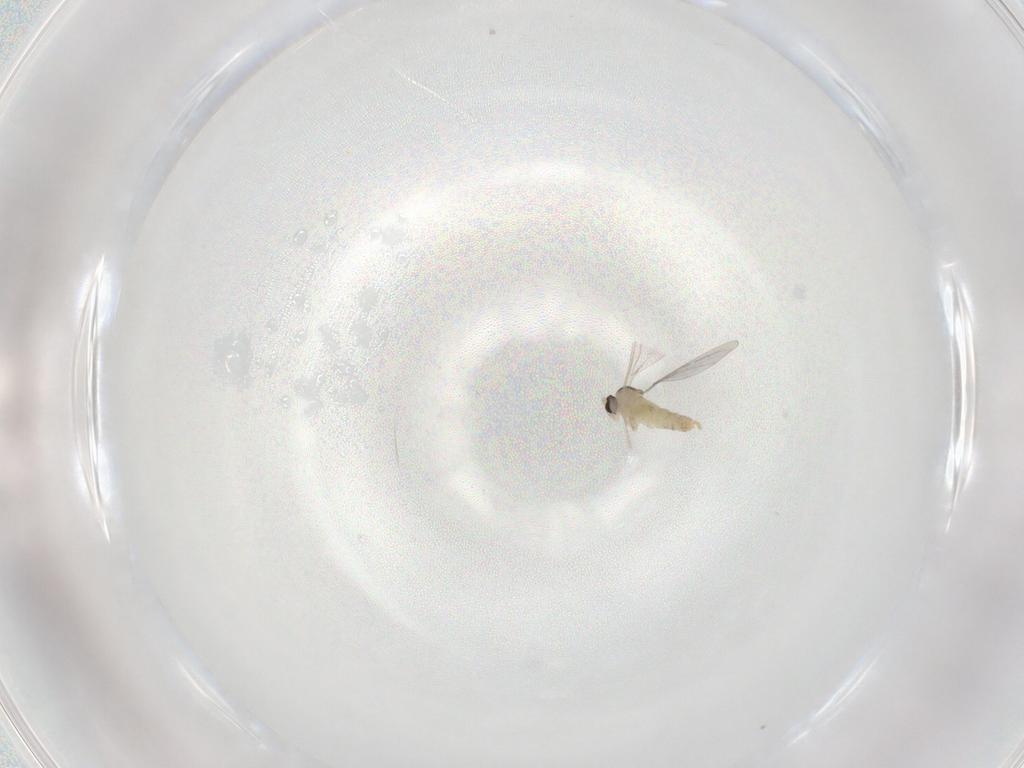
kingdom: Animalia
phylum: Arthropoda
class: Insecta
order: Diptera
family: Cecidomyiidae
